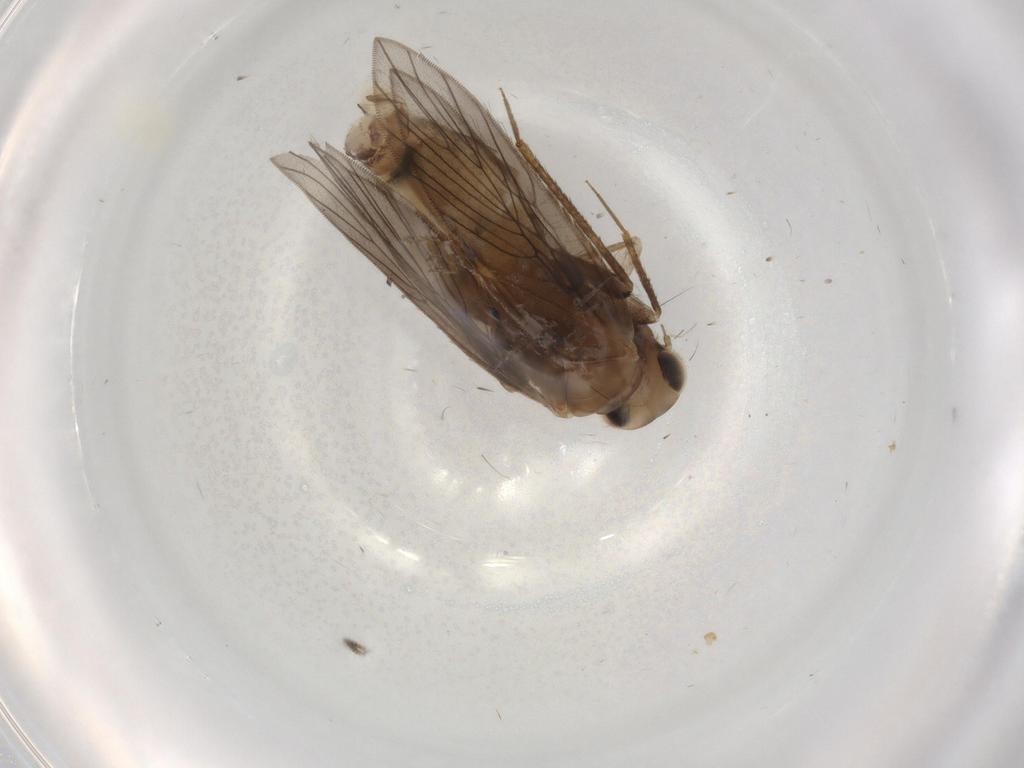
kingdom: Animalia
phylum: Arthropoda
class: Insecta
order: Psocodea
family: Lepidopsocidae
